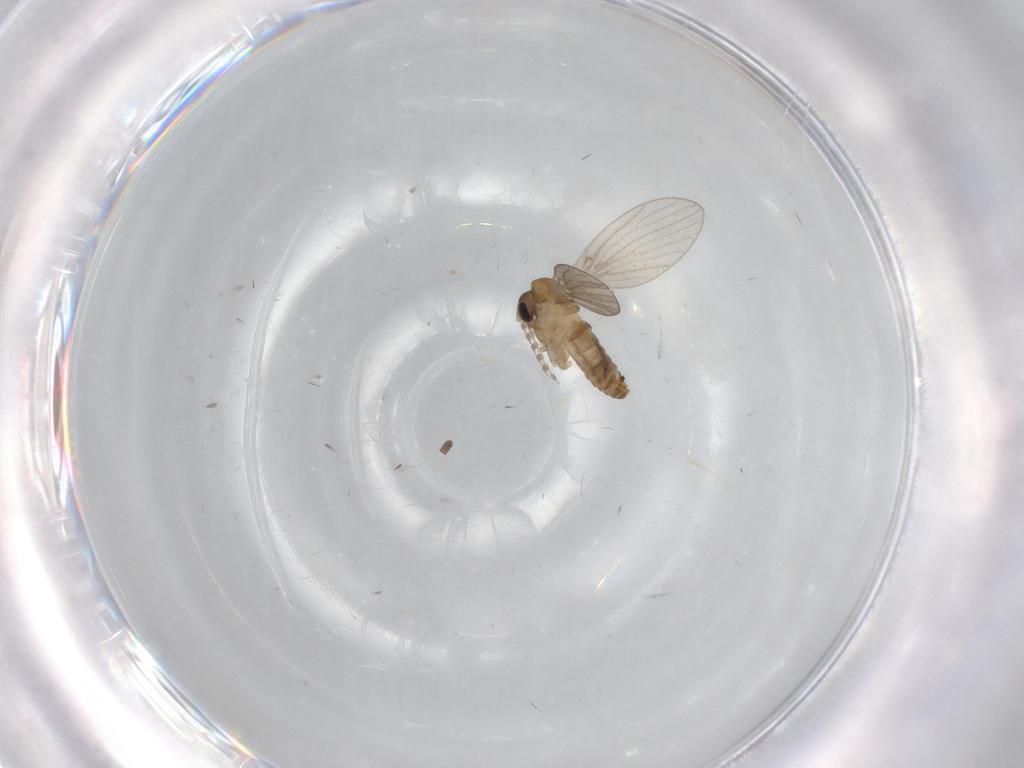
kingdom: Animalia
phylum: Arthropoda
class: Insecta
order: Diptera
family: Psychodidae
